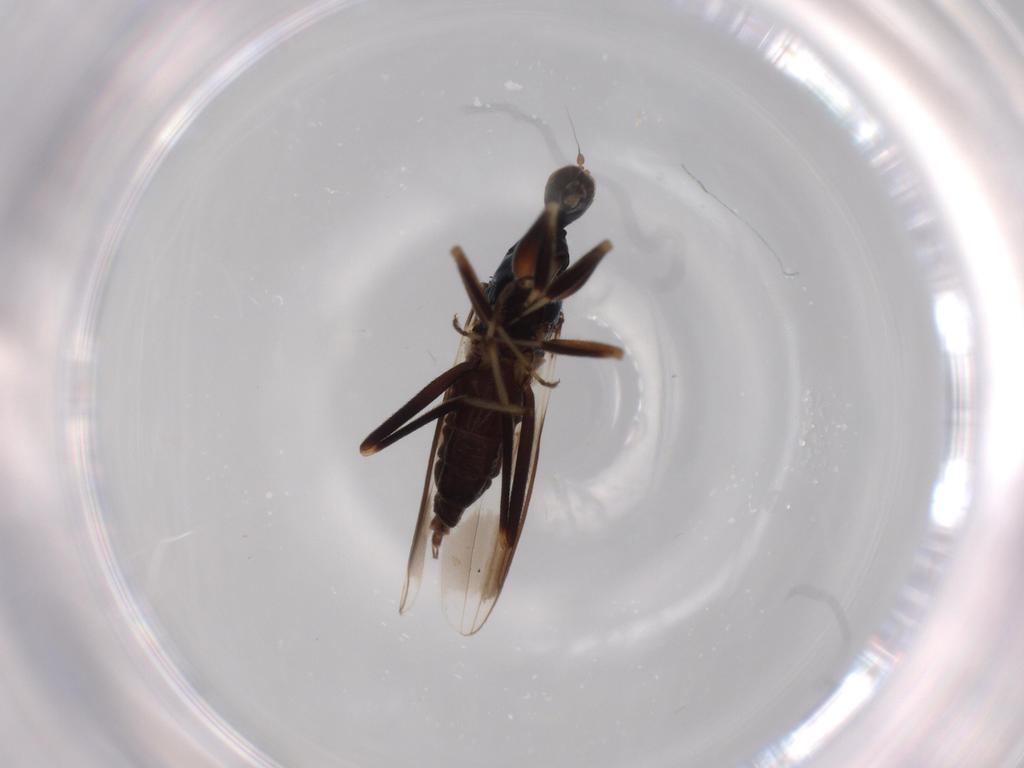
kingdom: Animalia
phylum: Arthropoda
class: Insecta
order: Diptera
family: Hybotidae
